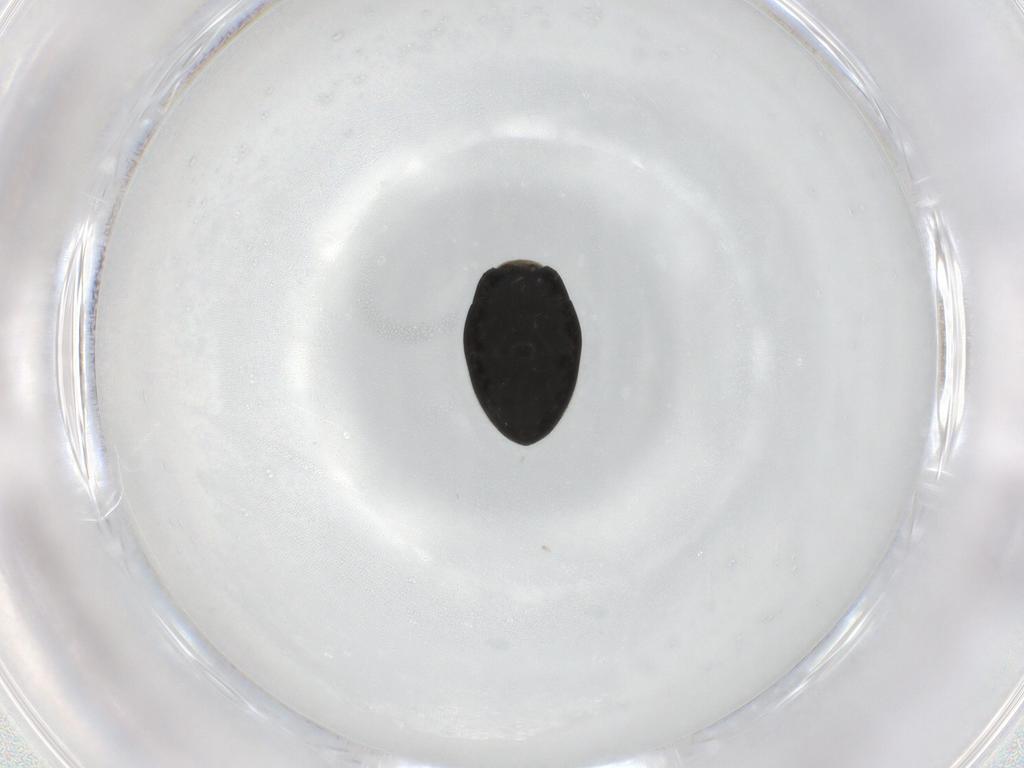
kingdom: Animalia
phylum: Arthropoda
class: Insecta
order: Coleoptera
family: Limnichidae
